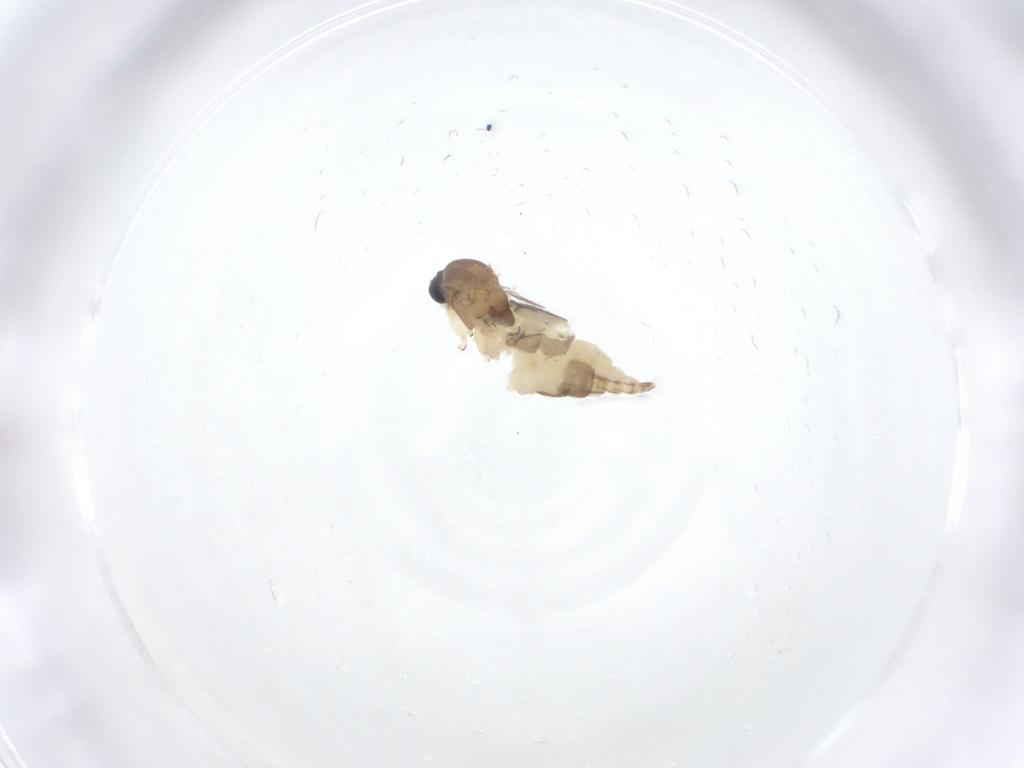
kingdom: Animalia
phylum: Arthropoda
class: Insecta
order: Diptera
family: Sciaridae
